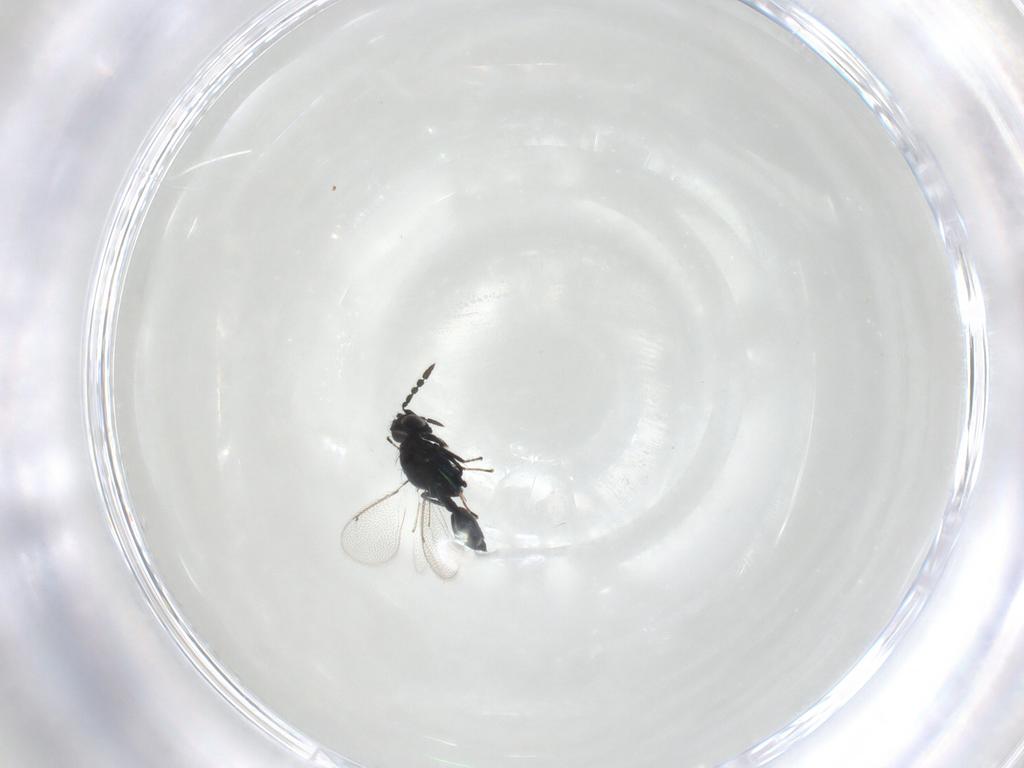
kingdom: Animalia
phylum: Arthropoda
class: Insecta
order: Hymenoptera
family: Eulophidae
